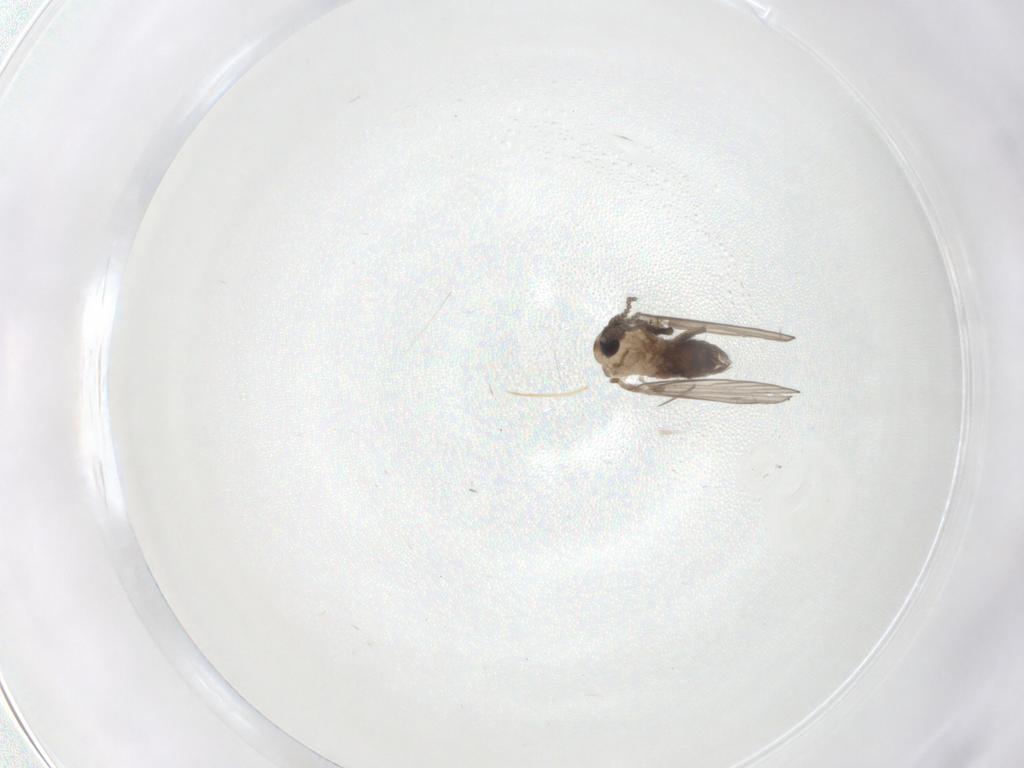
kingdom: Animalia
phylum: Arthropoda
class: Insecta
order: Diptera
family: Psychodidae
